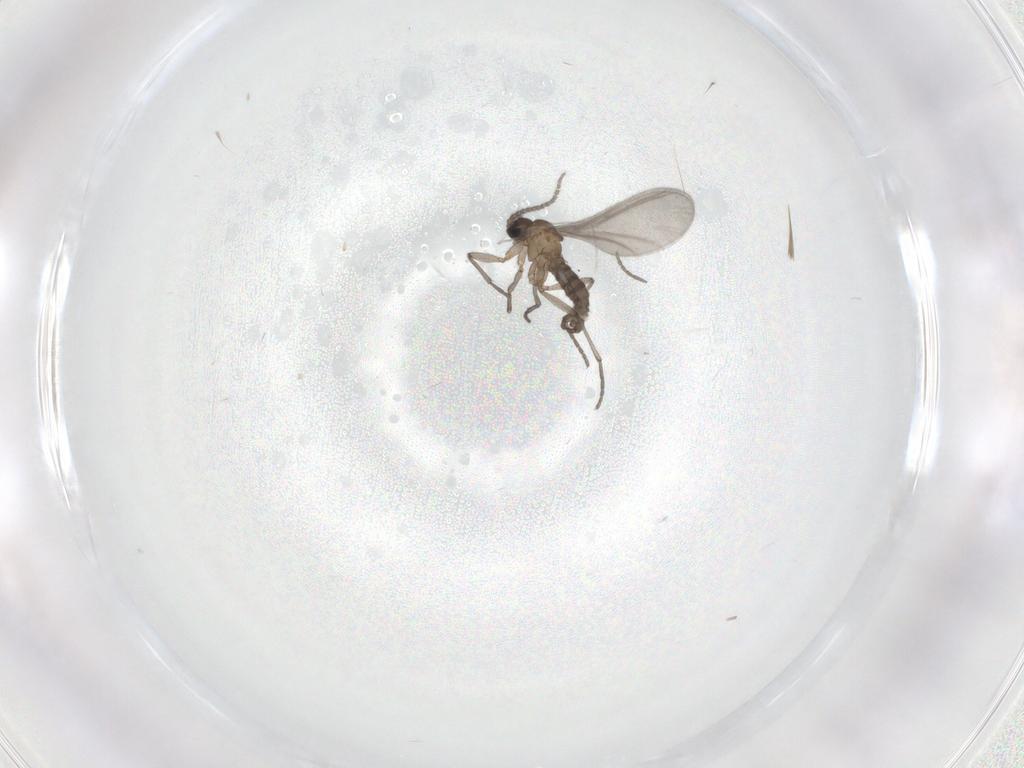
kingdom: Animalia
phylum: Arthropoda
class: Insecta
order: Diptera
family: Sciaridae
